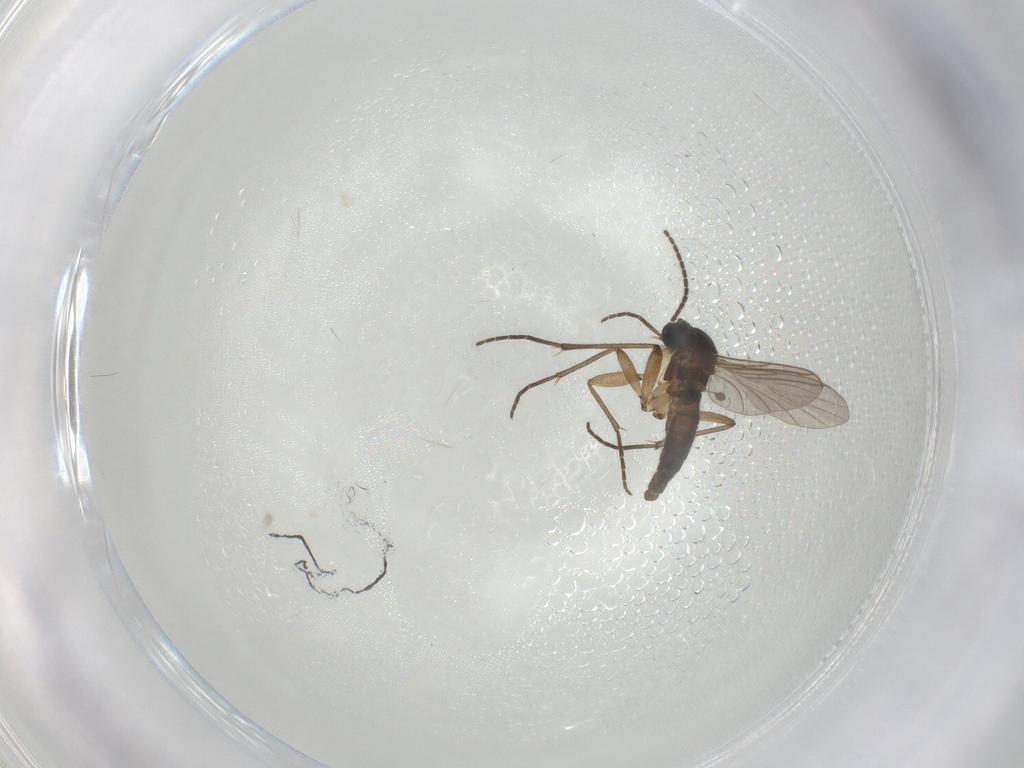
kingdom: Animalia
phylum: Arthropoda
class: Insecta
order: Diptera
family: Sciaridae
